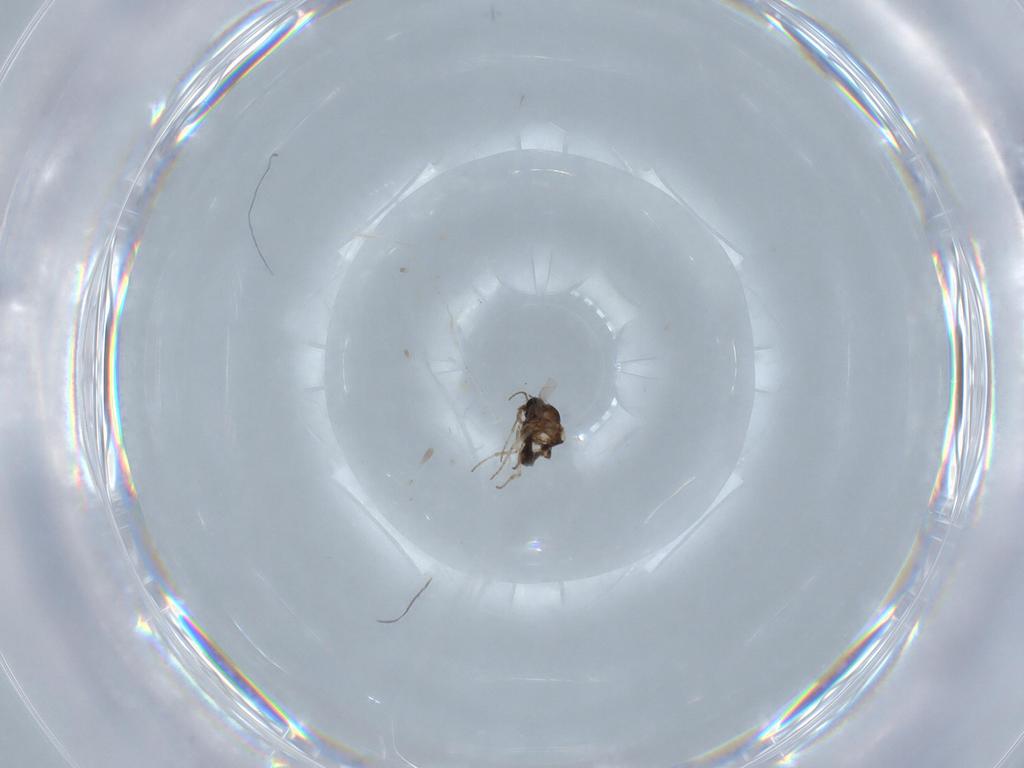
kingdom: Animalia
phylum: Arthropoda
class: Insecta
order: Diptera
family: Ceratopogonidae
